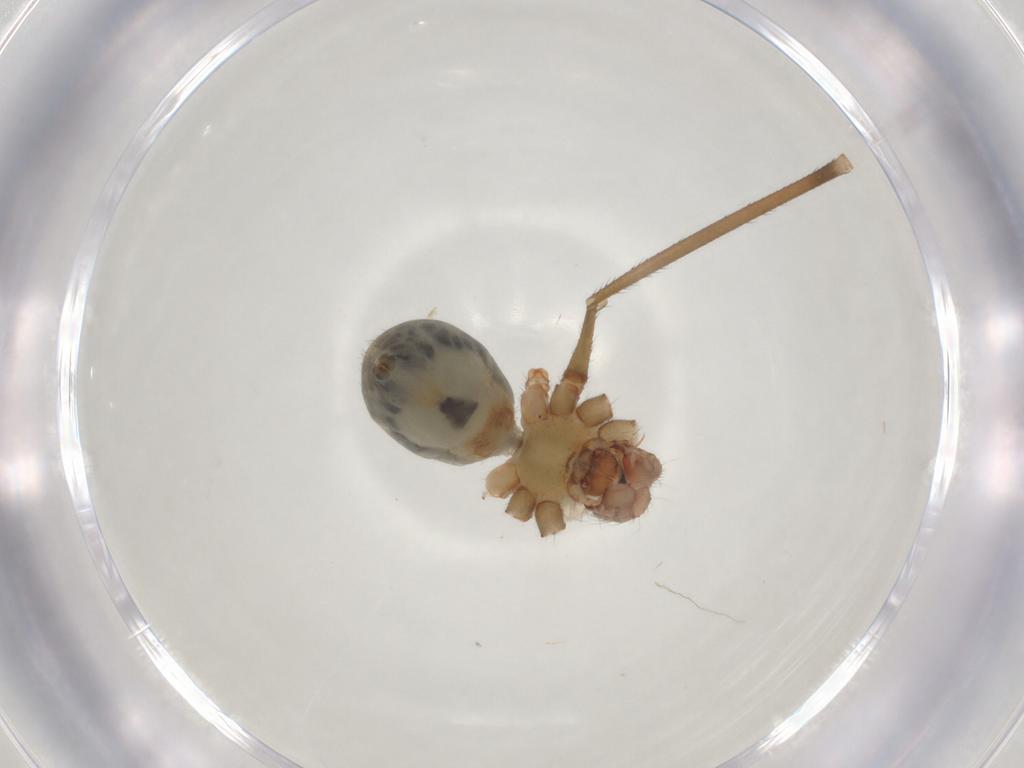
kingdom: Animalia
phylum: Arthropoda
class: Arachnida
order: Araneae
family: Pholcidae
